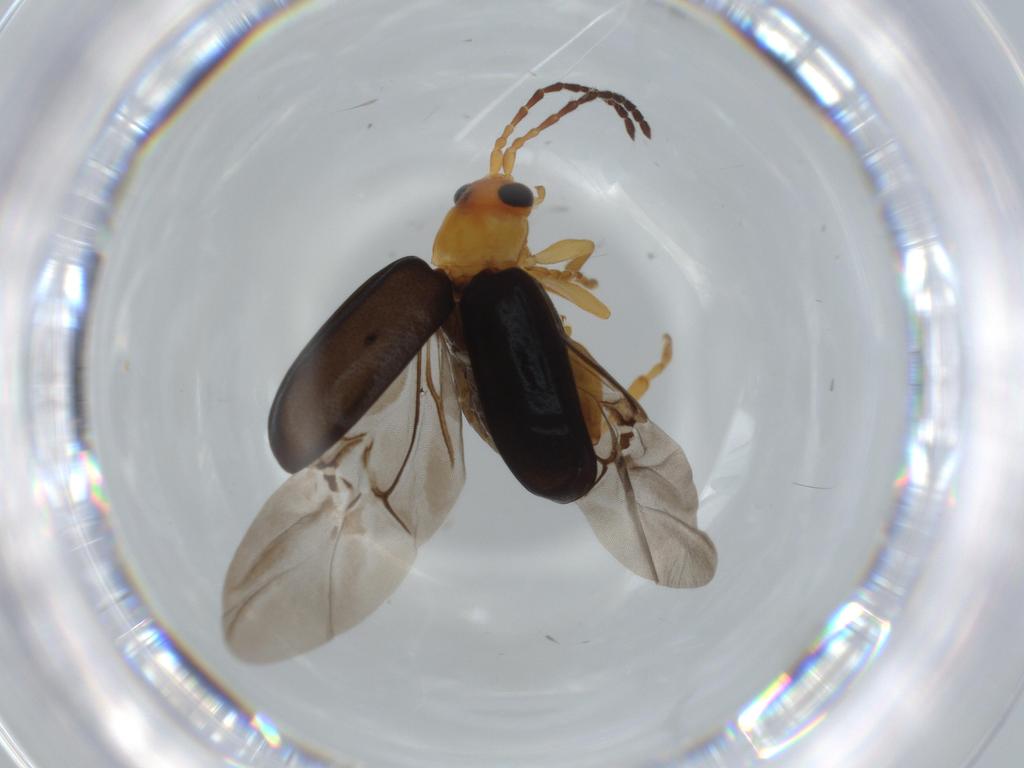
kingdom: Animalia
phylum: Arthropoda
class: Insecta
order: Coleoptera
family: Chrysomelidae
